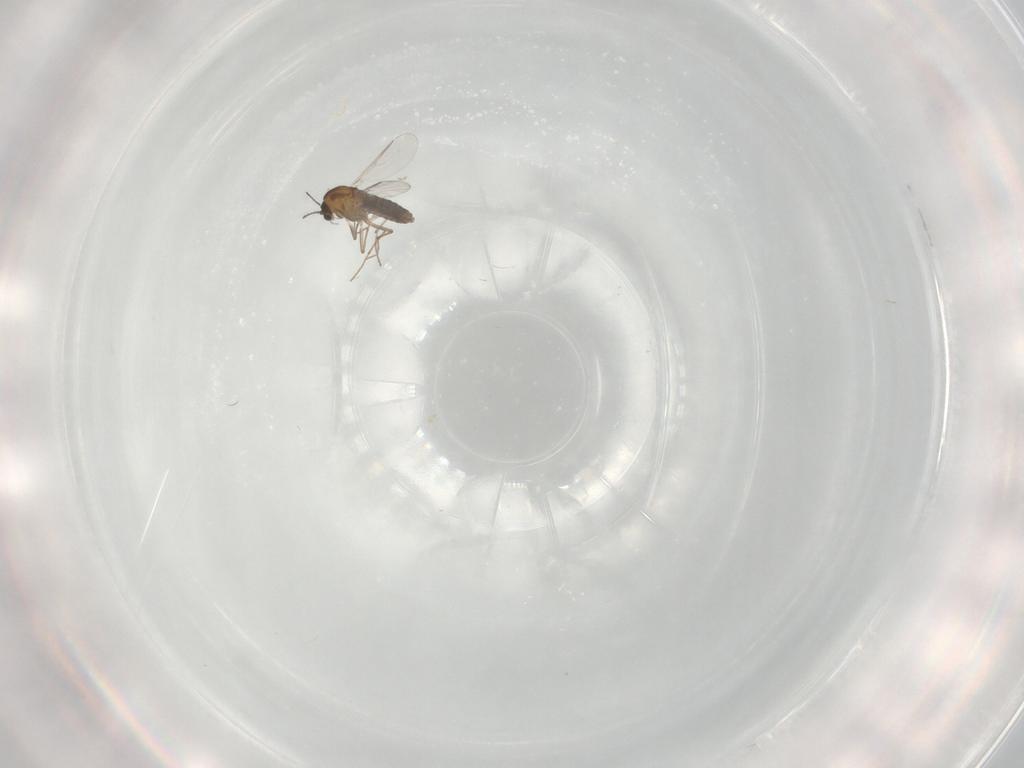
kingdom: Animalia
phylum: Arthropoda
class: Insecta
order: Diptera
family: Chironomidae
